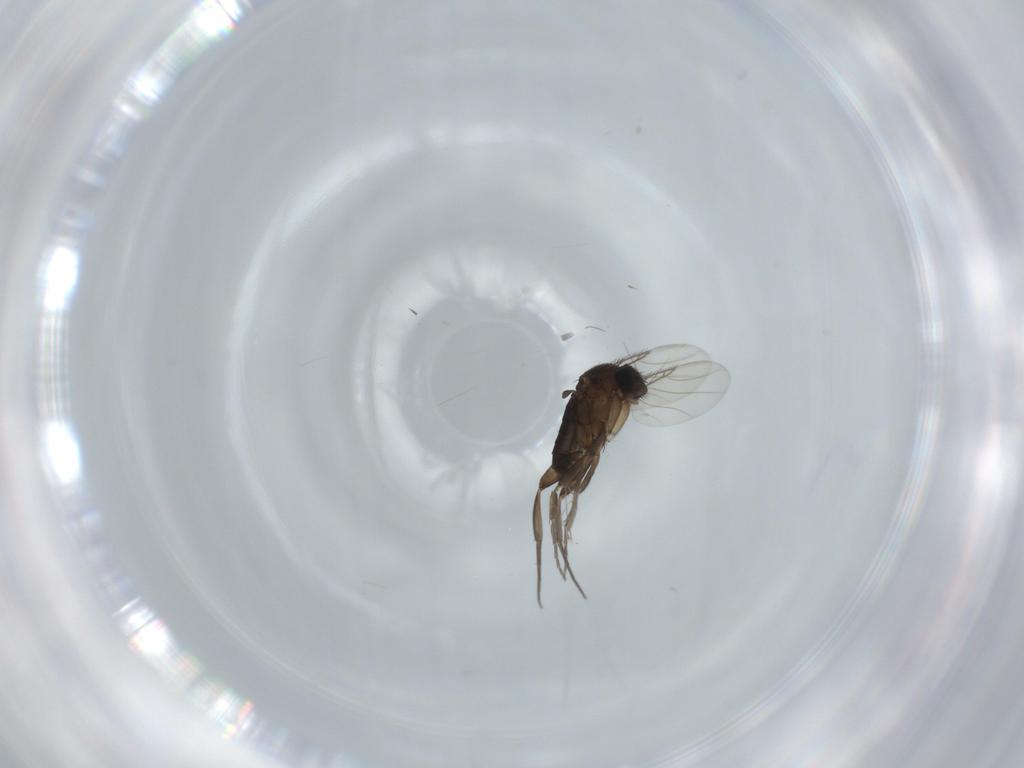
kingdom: Animalia
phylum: Arthropoda
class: Insecta
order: Diptera
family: Phoridae
